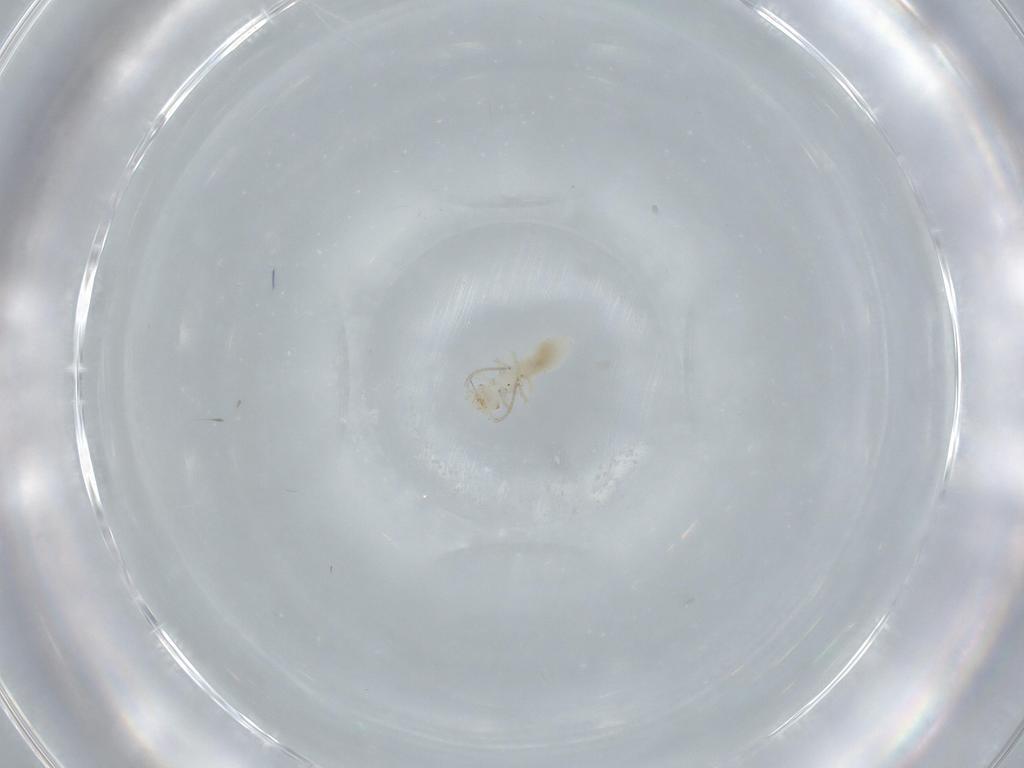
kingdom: Animalia
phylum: Arthropoda
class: Insecta
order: Psocodea
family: Caeciliusidae
